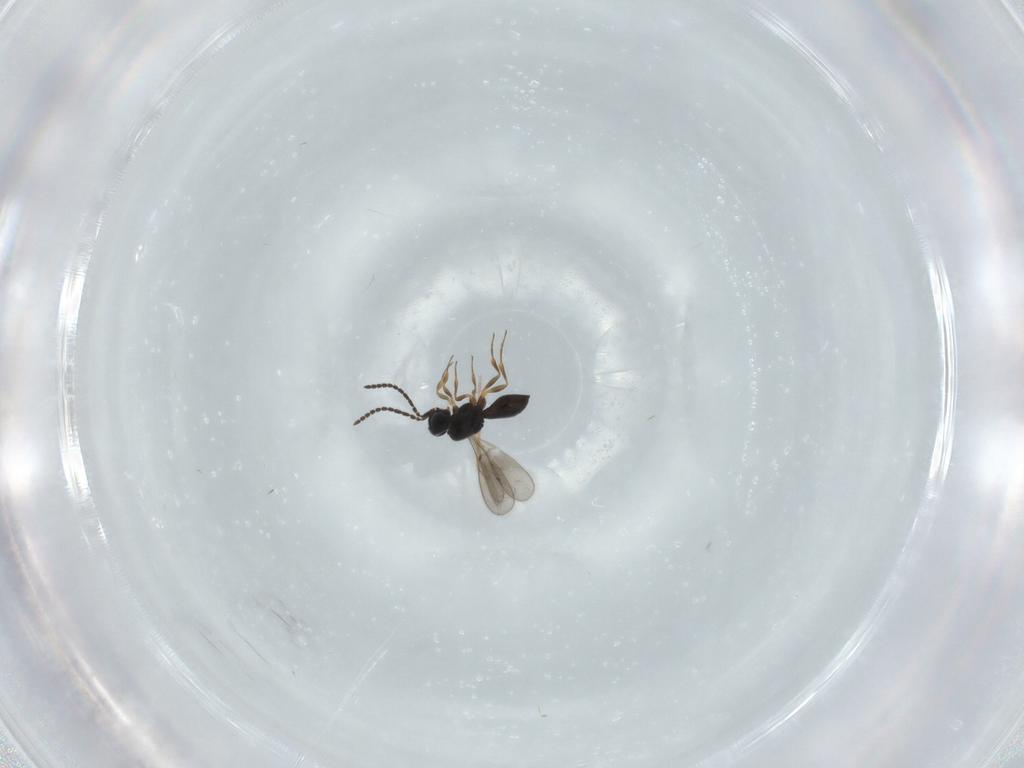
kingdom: Animalia
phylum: Arthropoda
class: Insecta
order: Hymenoptera
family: Scelionidae
